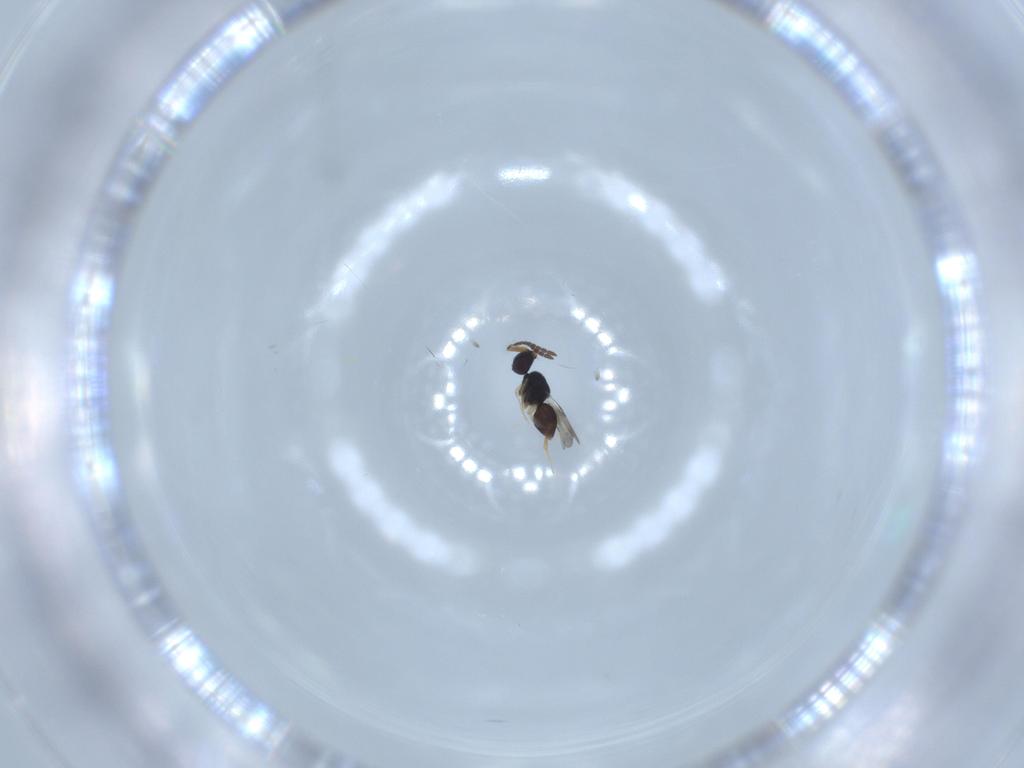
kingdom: Animalia
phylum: Arthropoda
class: Insecta
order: Hymenoptera
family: Ceraphronidae
